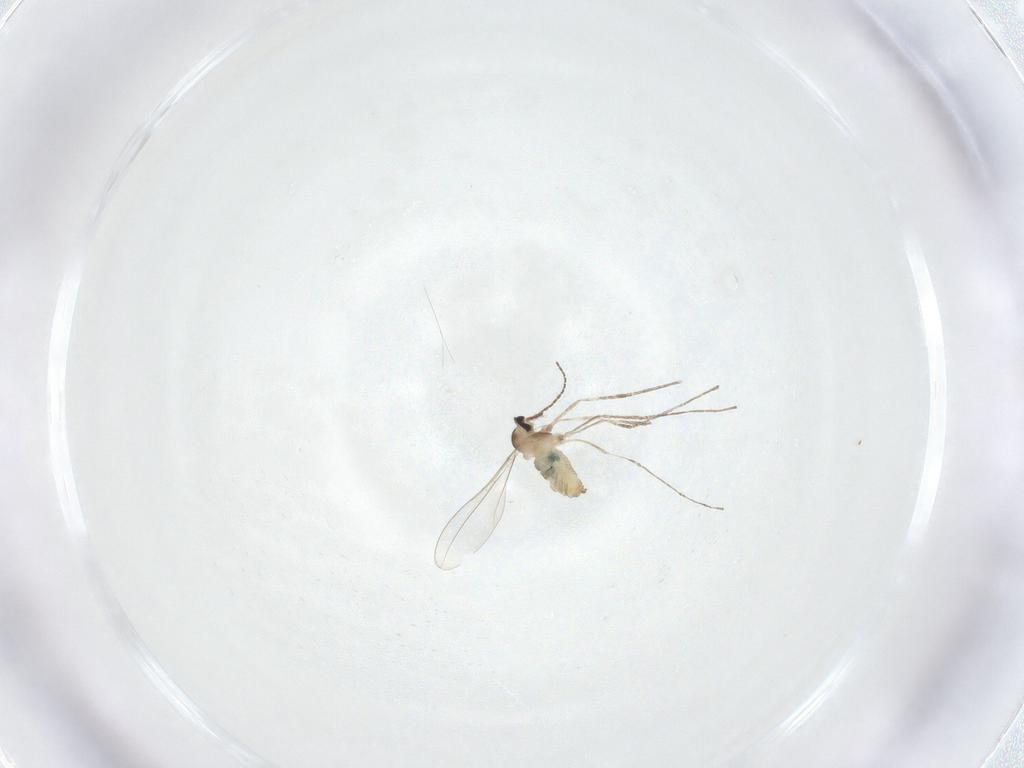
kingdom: Animalia
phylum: Arthropoda
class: Insecta
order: Diptera
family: Cecidomyiidae
